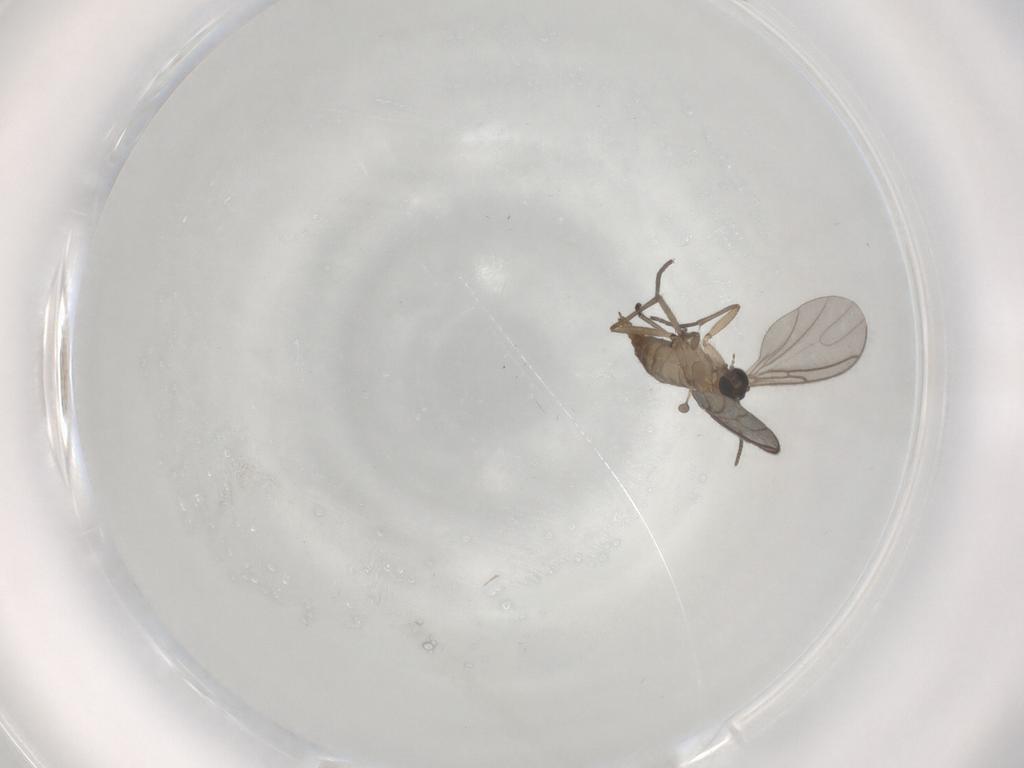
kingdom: Animalia
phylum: Arthropoda
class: Insecta
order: Diptera
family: Sciaridae
